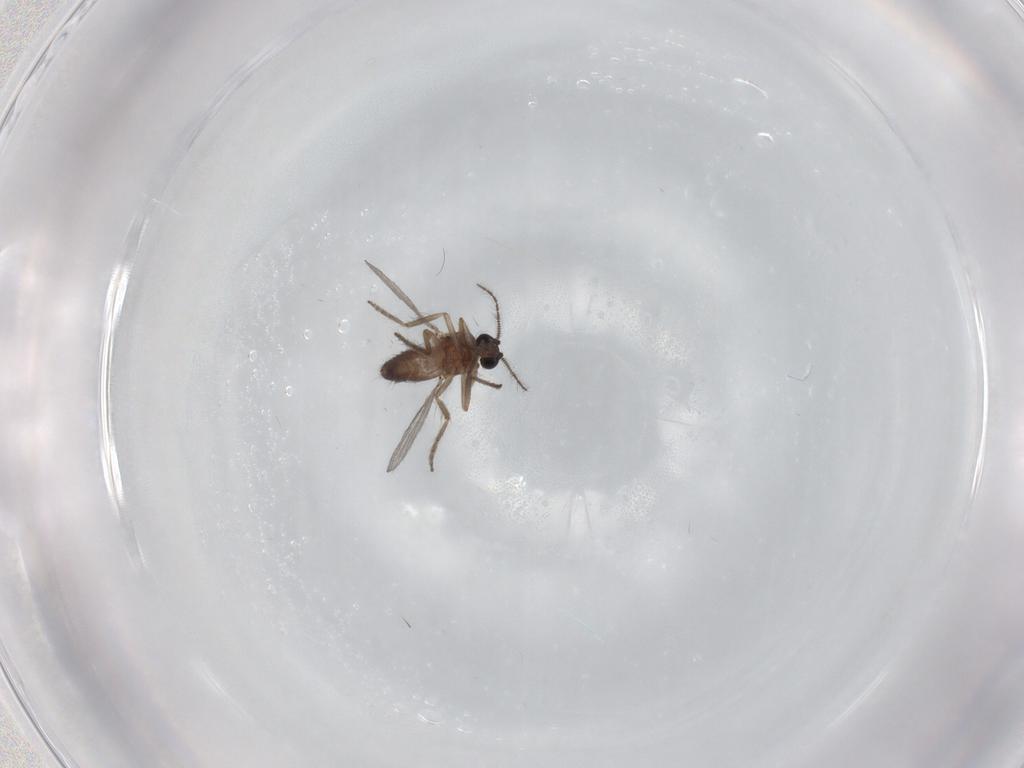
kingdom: Animalia
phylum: Arthropoda
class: Insecta
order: Diptera
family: Ceratopogonidae
